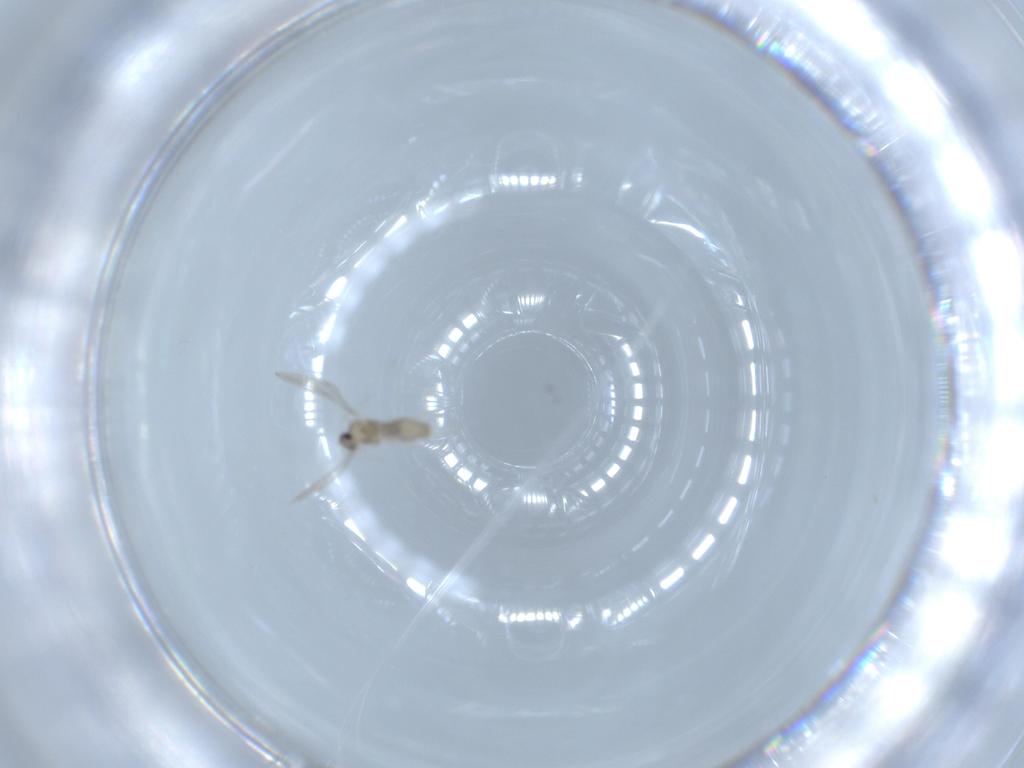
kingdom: Animalia
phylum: Arthropoda
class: Insecta
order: Diptera
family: Cecidomyiidae
